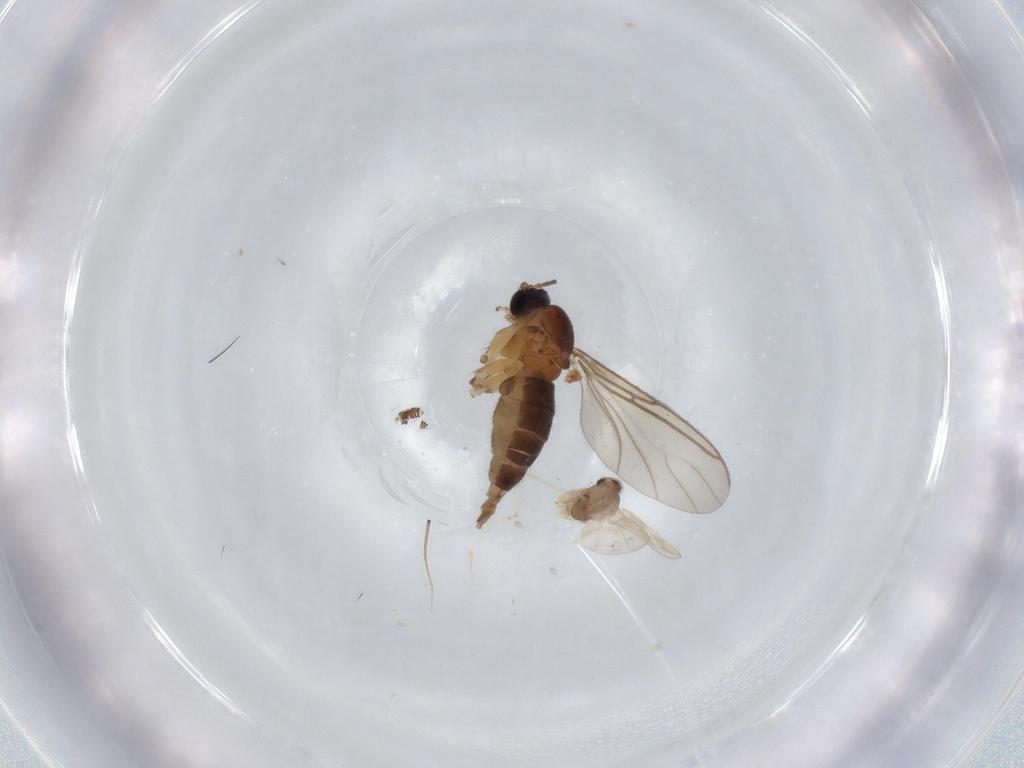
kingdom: Animalia
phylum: Arthropoda
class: Insecta
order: Diptera
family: Sciaridae
